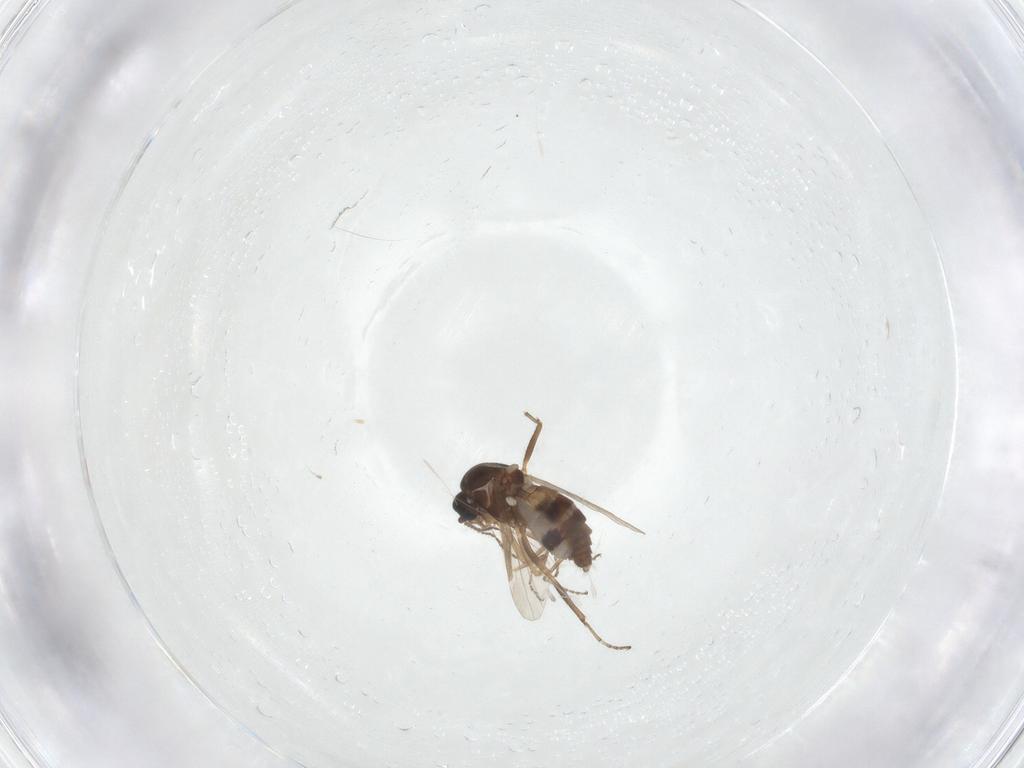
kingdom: Animalia
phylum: Arthropoda
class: Insecta
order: Diptera
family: Ceratopogonidae
